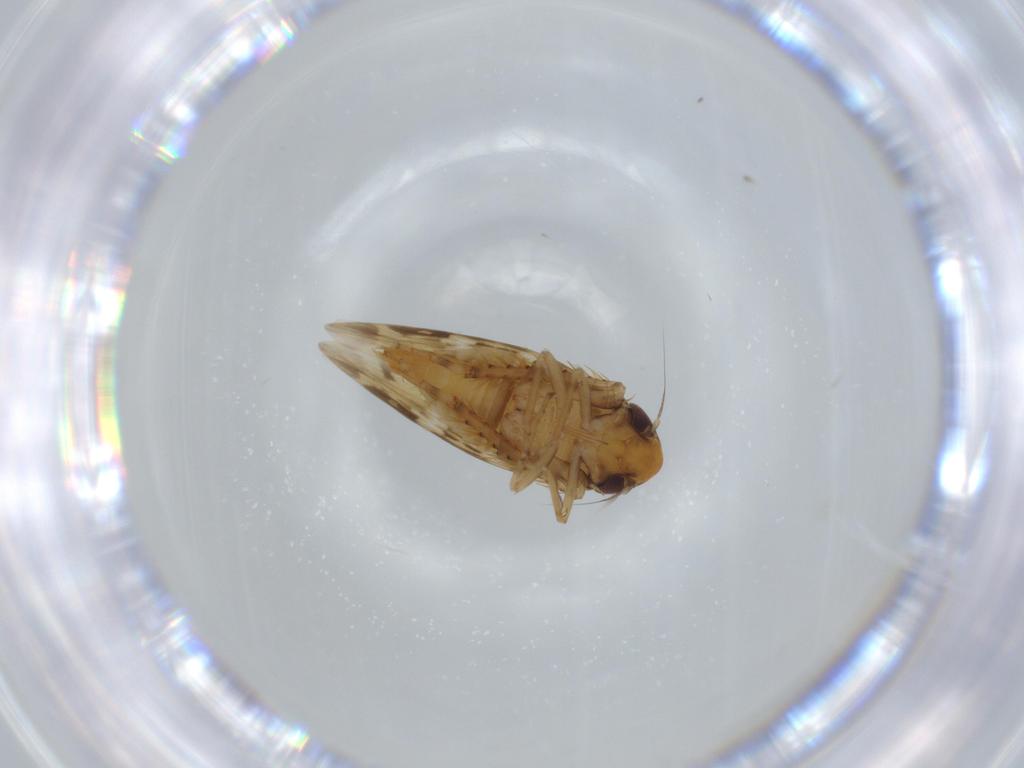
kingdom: Animalia
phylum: Arthropoda
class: Insecta
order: Hemiptera
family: Cicadellidae
